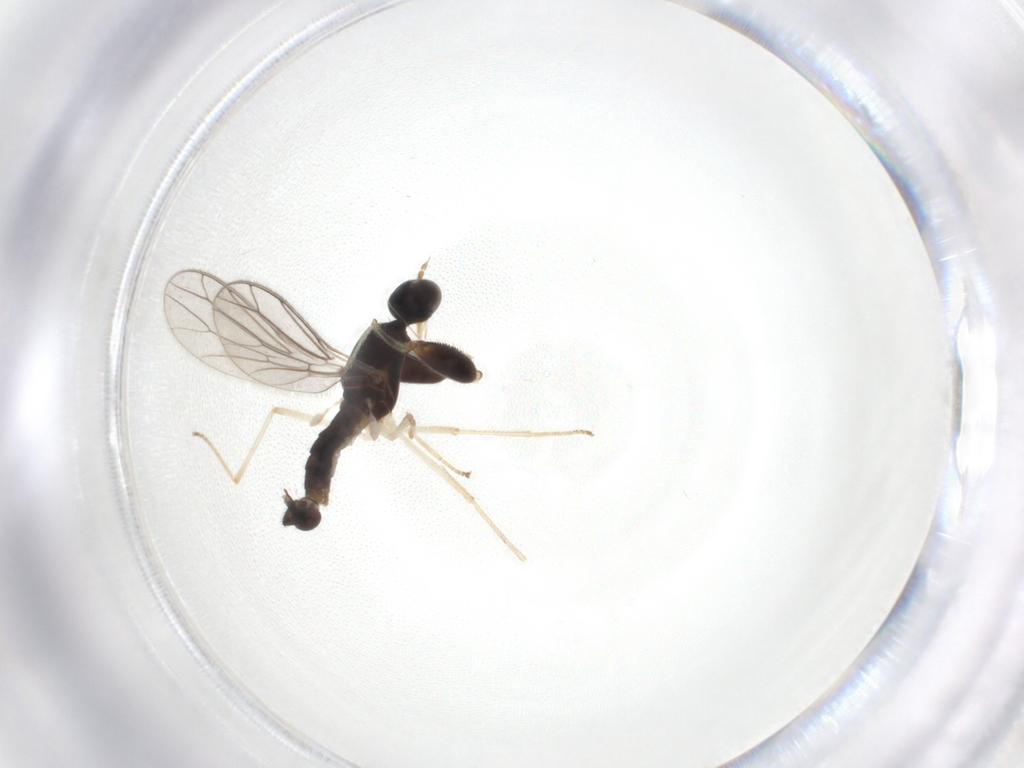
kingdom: Animalia
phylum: Arthropoda
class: Insecta
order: Diptera
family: Empididae
